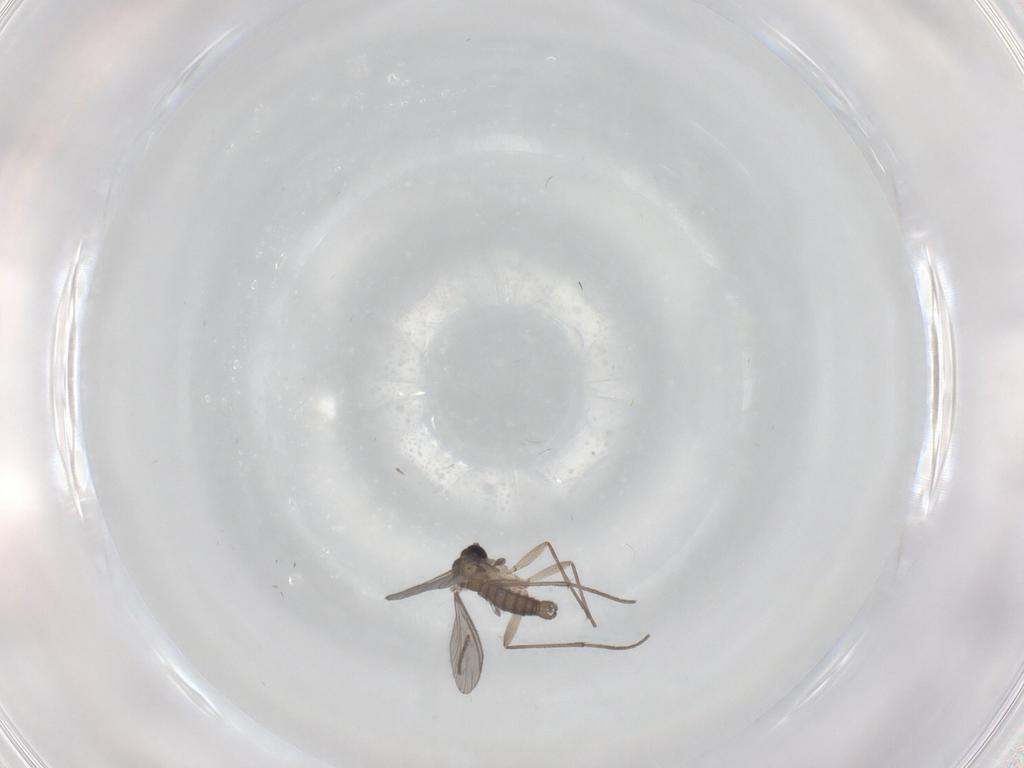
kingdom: Animalia
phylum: Arthropoda
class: Insecta
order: Diptera
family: Sciaridae
